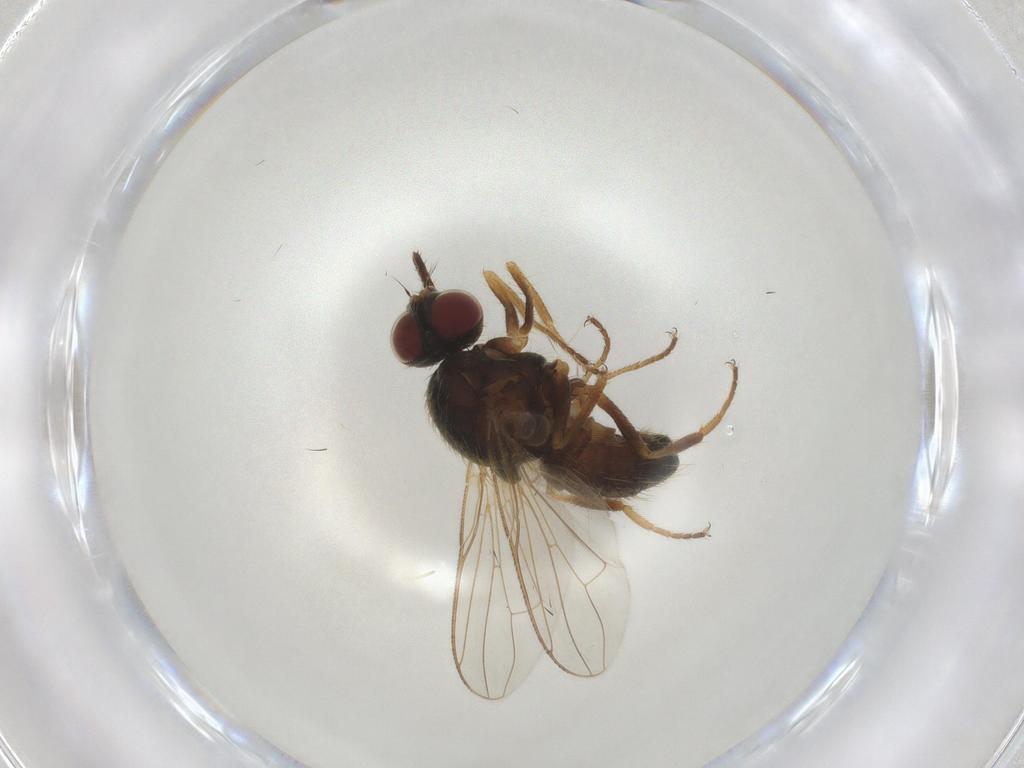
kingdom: Animalia
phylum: Arthropoda
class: Insecta
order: Diptera
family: Muscidae
